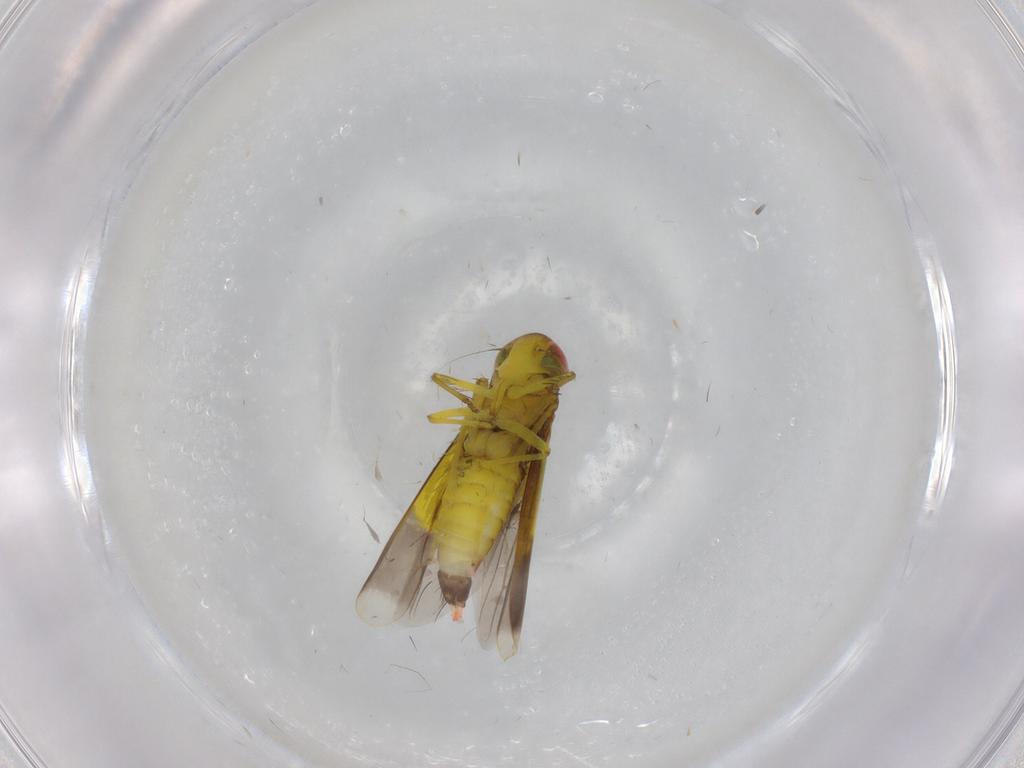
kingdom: Animalia
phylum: Arthropoda
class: Insecta
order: Hemiptera
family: Cicadellidae
